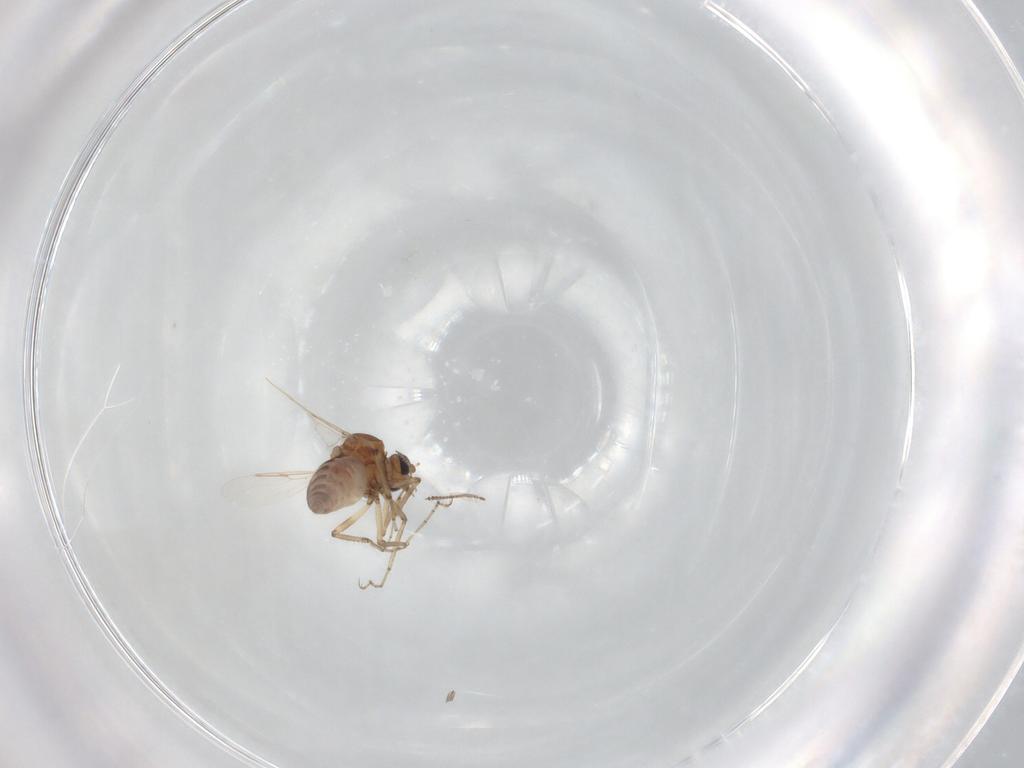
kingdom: Animalia
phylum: Arthropoda
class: Insecta
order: Diptera
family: Ceratopogonidae
